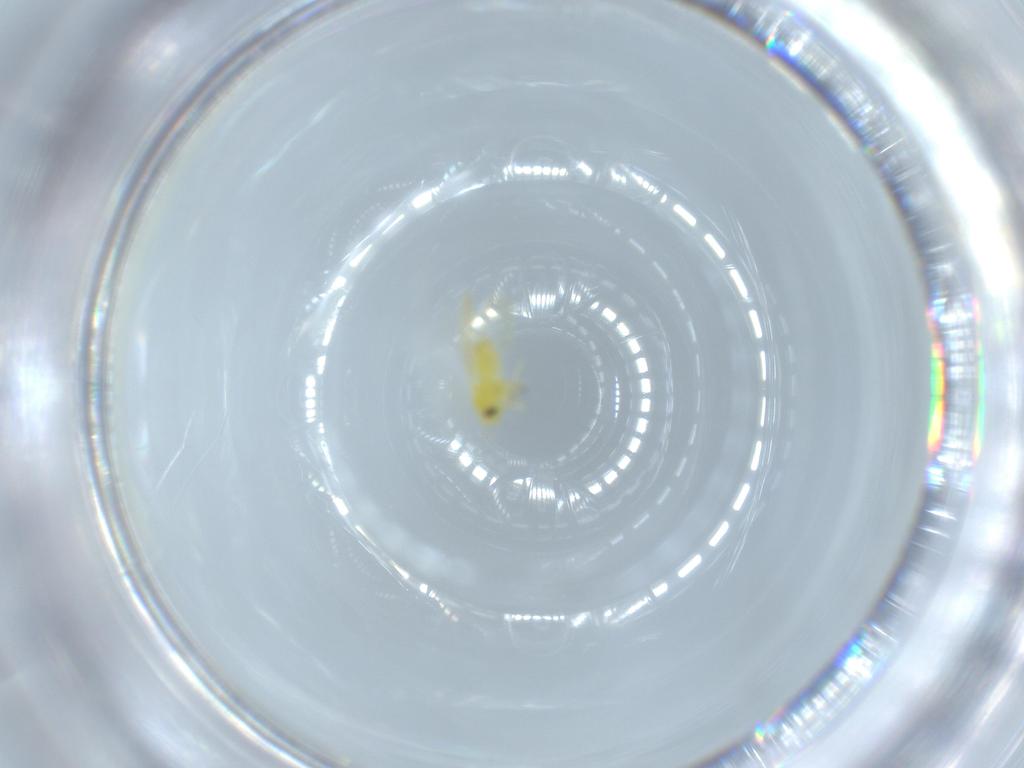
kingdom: Animalia
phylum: Arthropoda
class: Insecta
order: Hemiptera
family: Aleyrodidae
